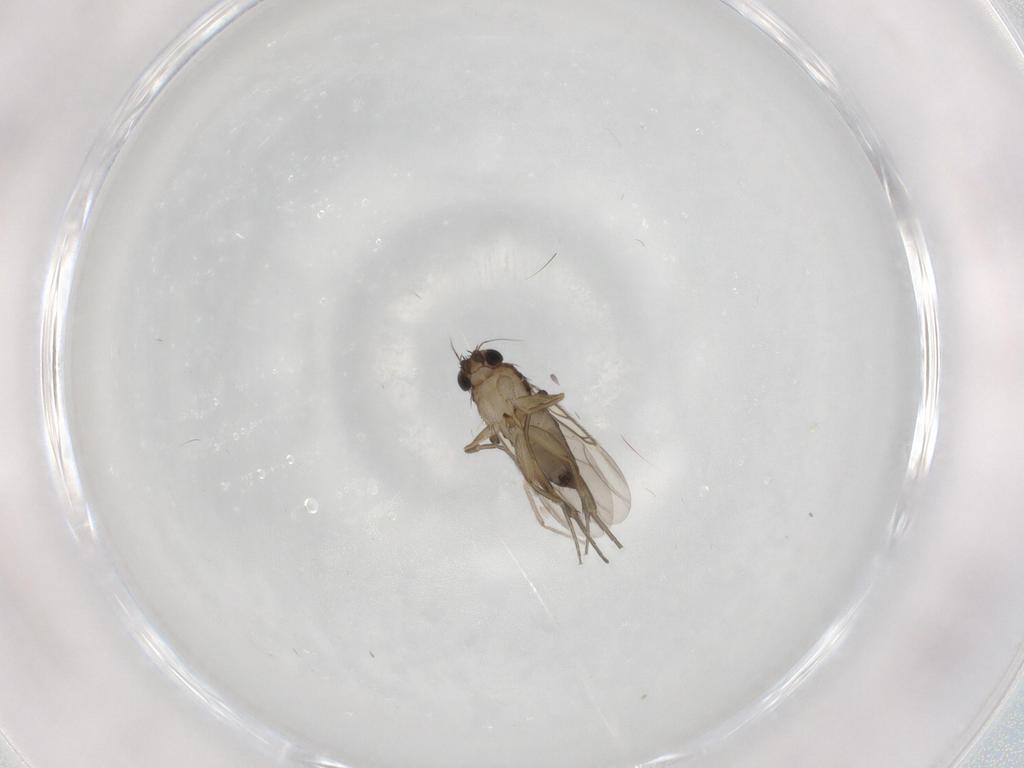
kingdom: Animalia
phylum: Arthropoda
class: Insecta
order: Diptera
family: Phoridae
